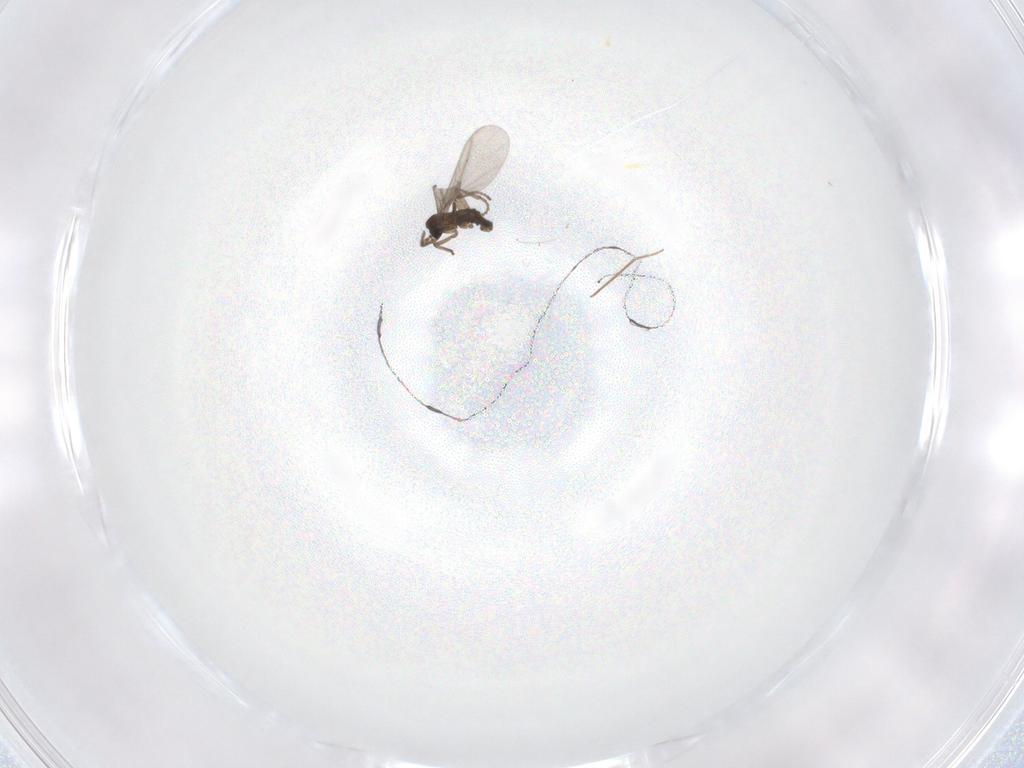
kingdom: Animalia
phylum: Arthropoda
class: Insecta
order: Diptera
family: Chironomidae
